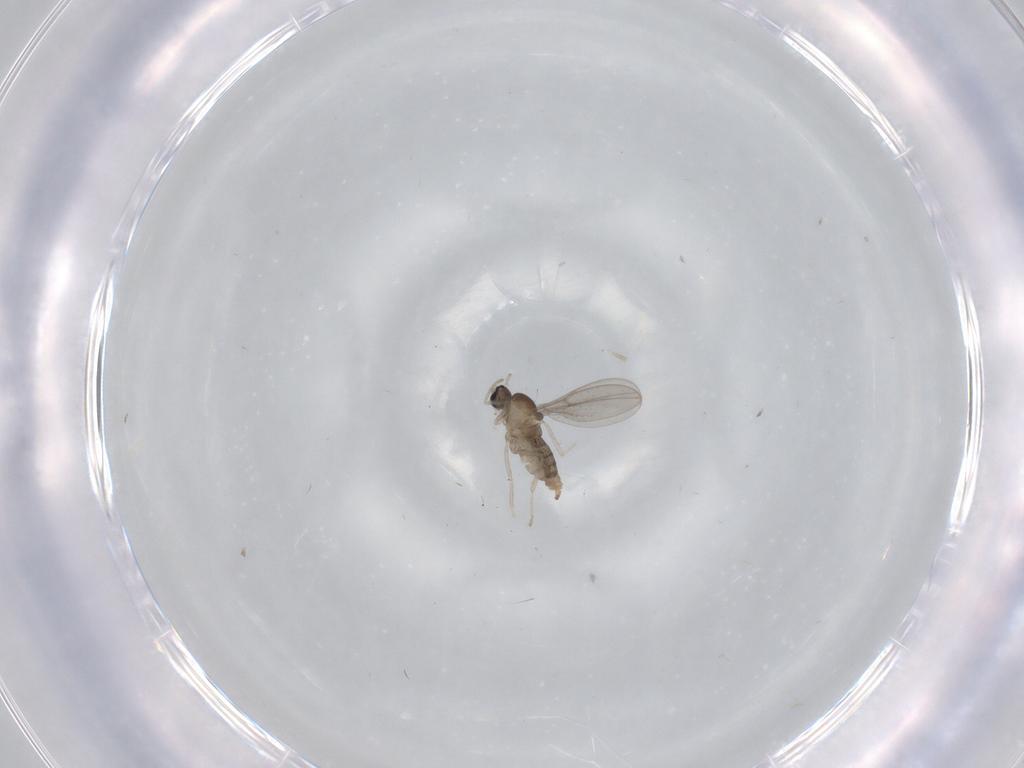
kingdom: Animalia
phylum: Arthropoda
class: Insecta
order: Diptera
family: Cecidomyiidae
